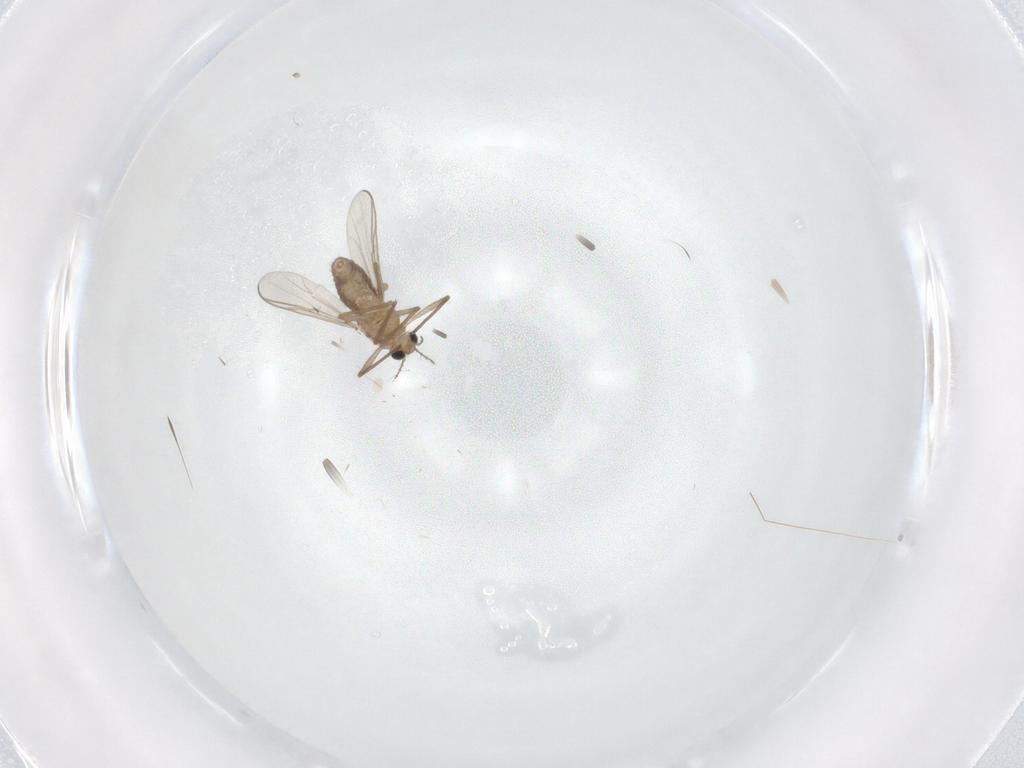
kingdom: Animalia
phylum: Arthropoda
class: Insecta
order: Diptera
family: Chironomidae
